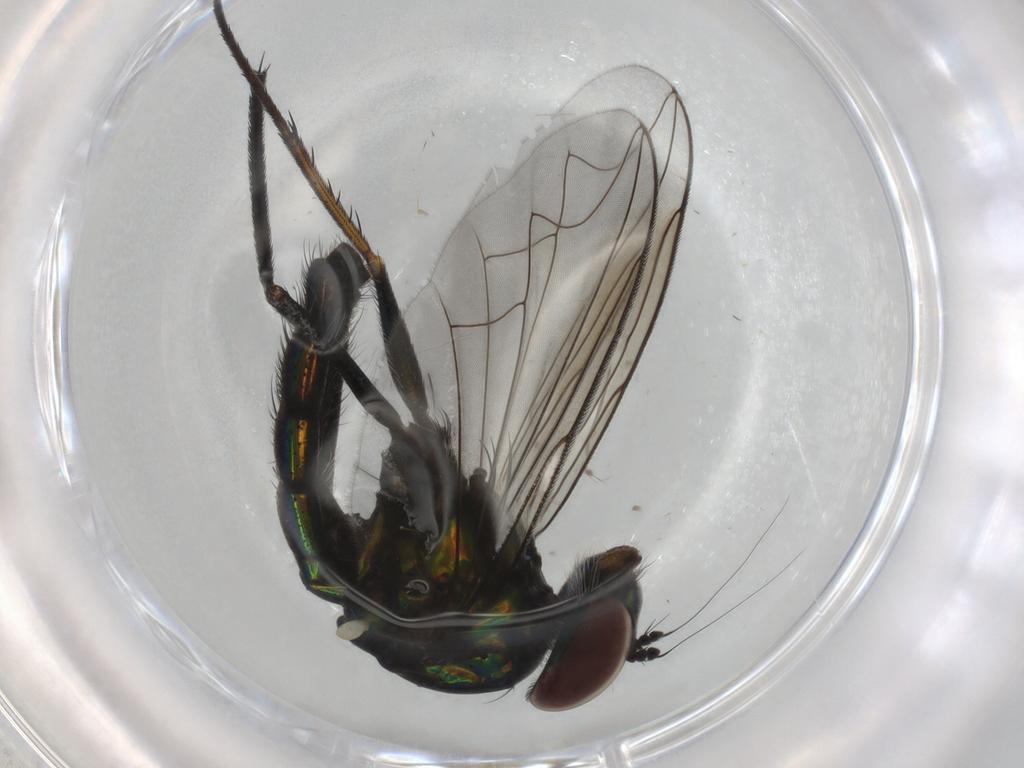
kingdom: Animalia
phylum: Arthropoda
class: Insecta
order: Diptera
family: Dolichopodidae
